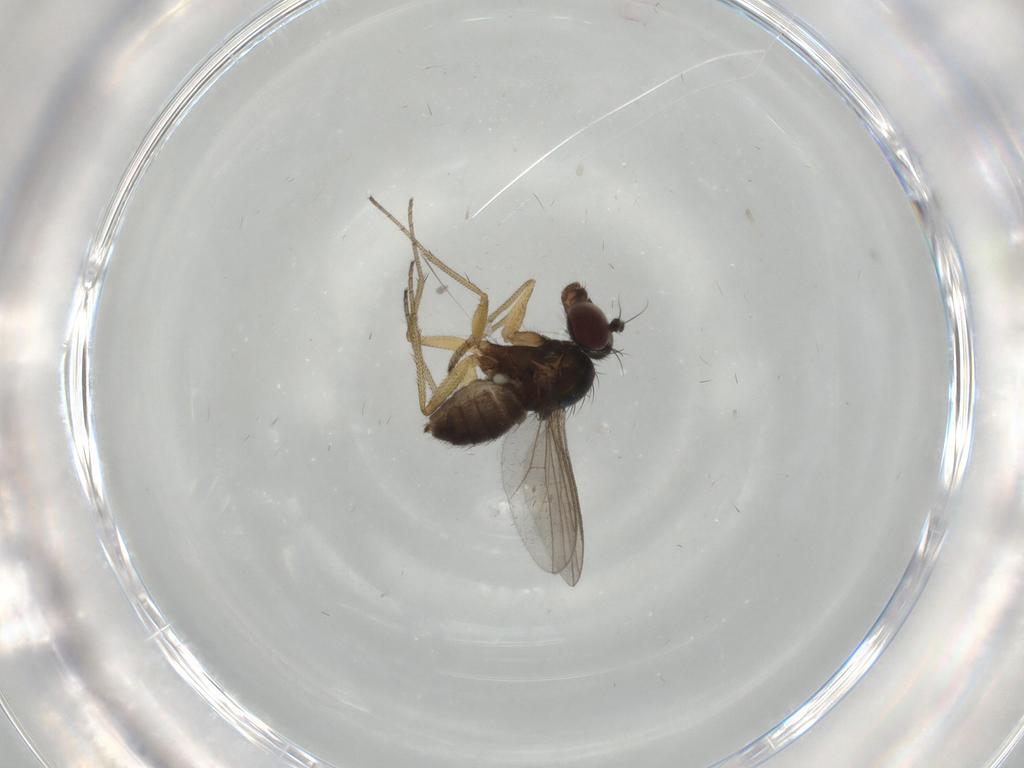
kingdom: Animalia
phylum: Arthropoda
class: Insecta
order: Diptera
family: Dolichopodidae
